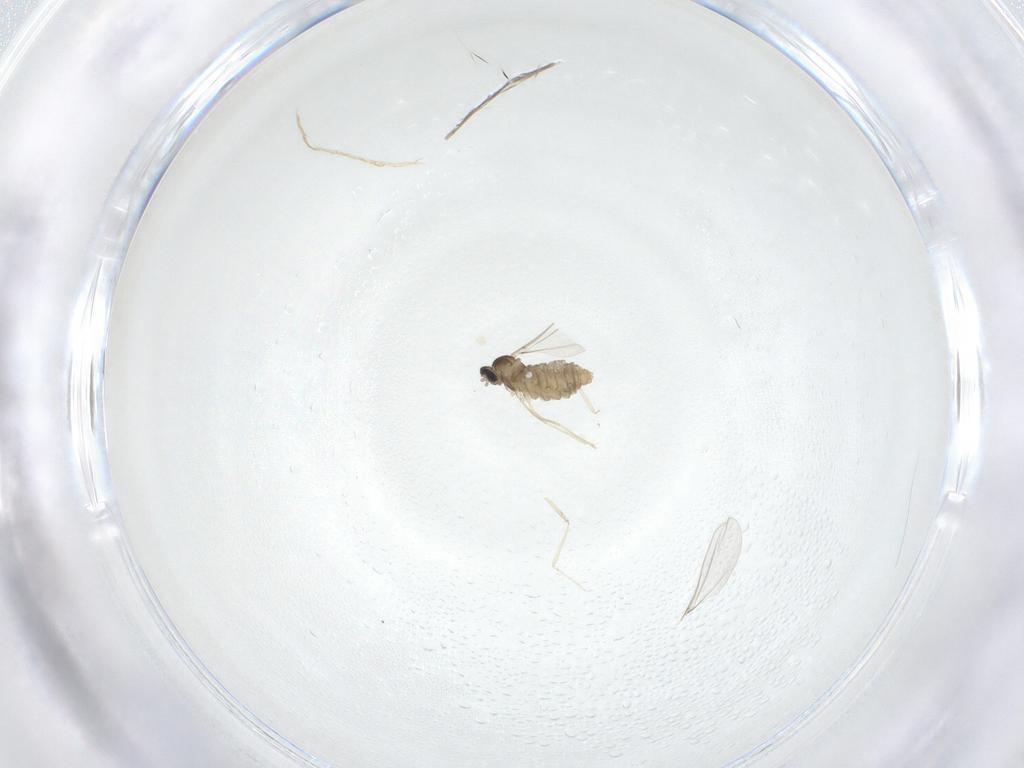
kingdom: Animalia
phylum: Arthropoda
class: Insecta
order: Diptera
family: Cecidomyiidae
